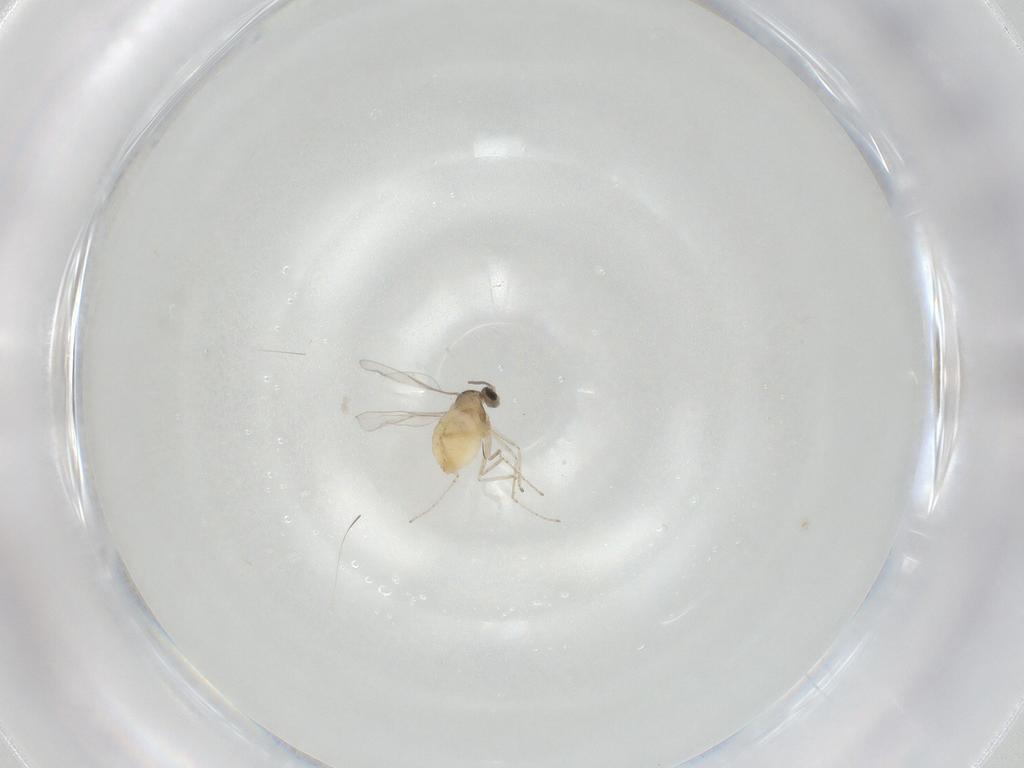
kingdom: Animalia
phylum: Arthropoda
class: Insecta
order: Diptera
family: Cecidomyiidae
